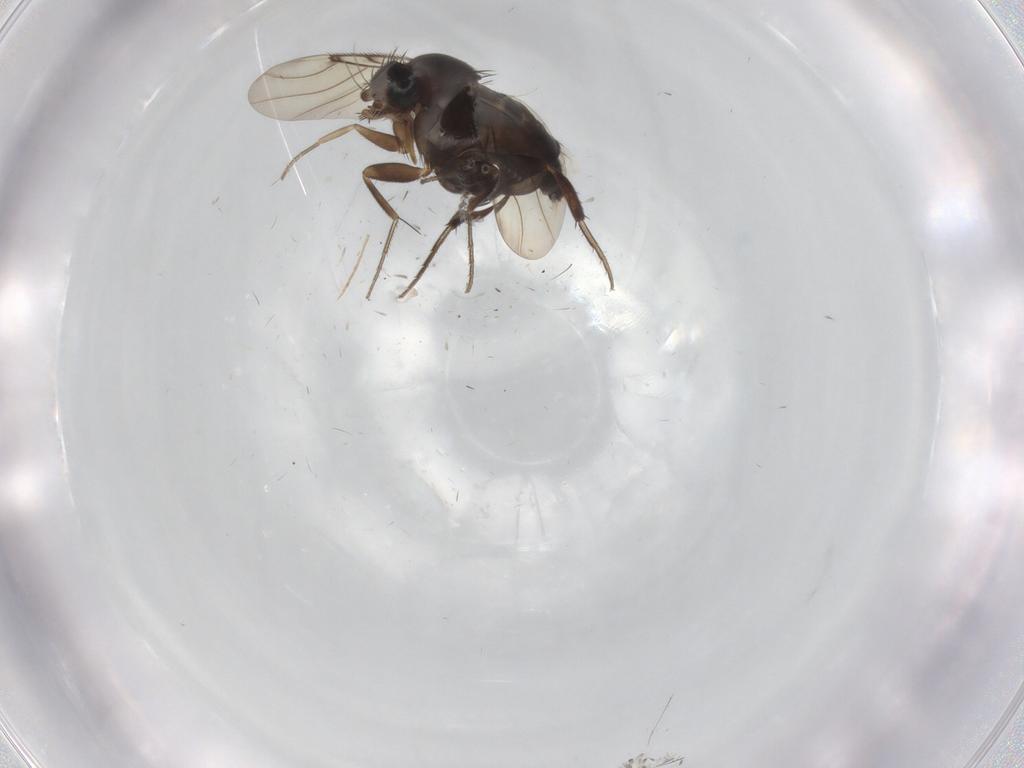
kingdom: Animalia
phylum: Arthropoda
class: Insecta
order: Diptera
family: Phoridae
